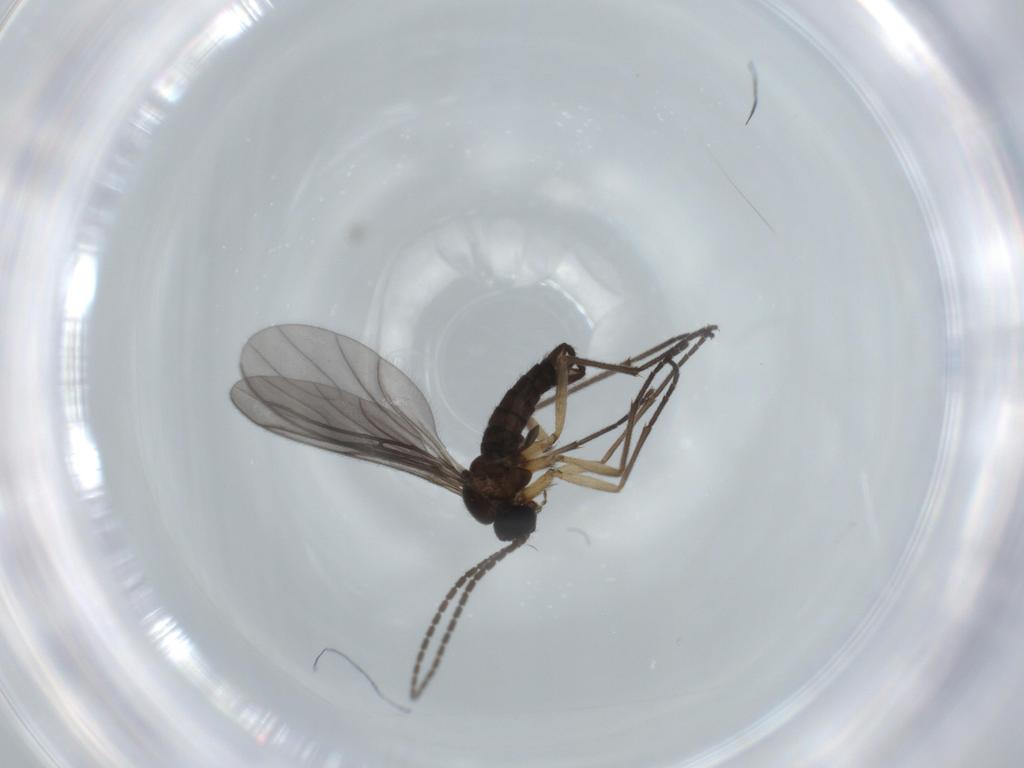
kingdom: Animalia
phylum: Arthropoda
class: Insecta
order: Diptera
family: Sciaridae
